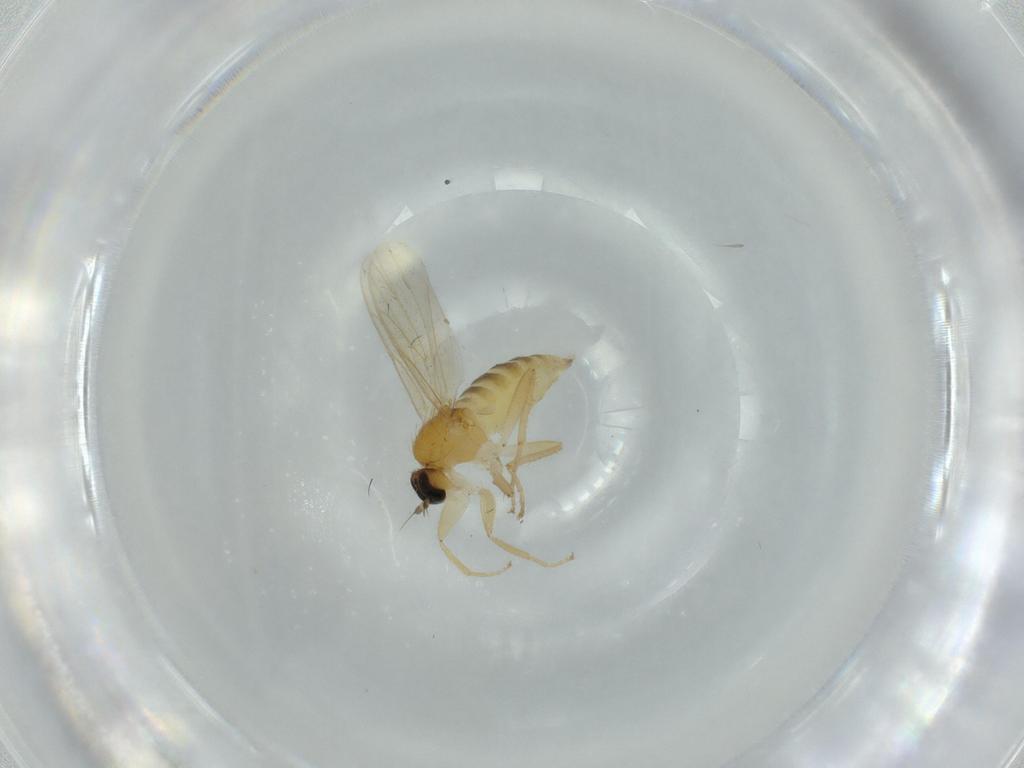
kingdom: Animalia
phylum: Arthropoda
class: Insecta
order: Diptera
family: Hybotidae
